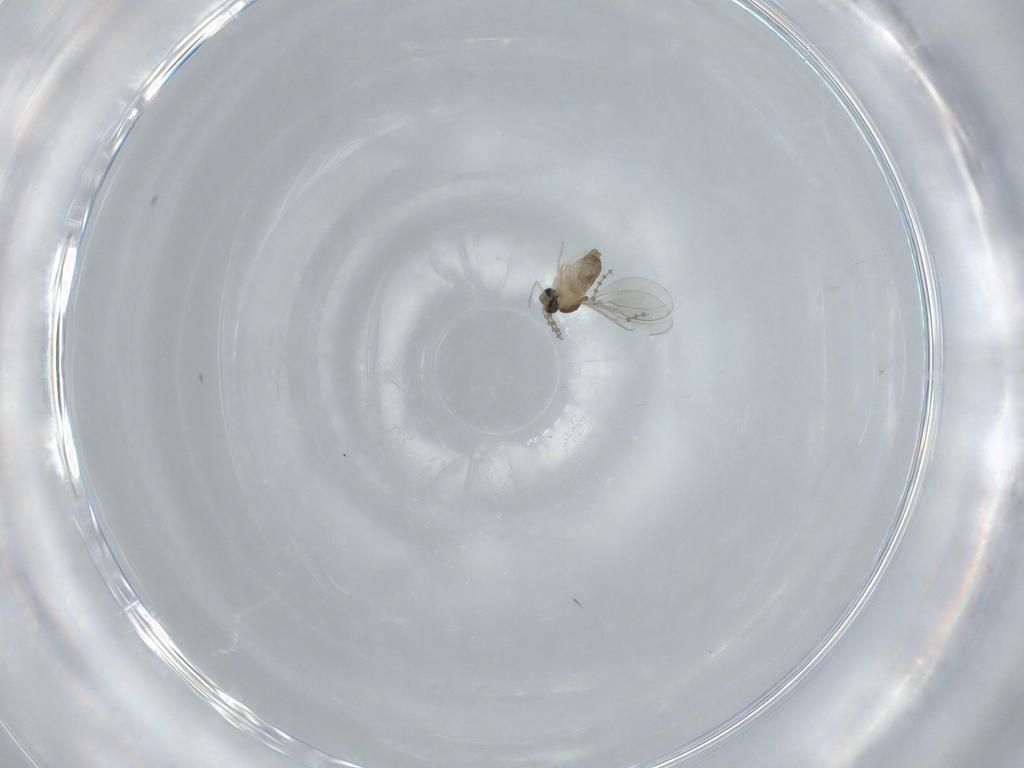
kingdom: Animalia
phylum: Arthropoda
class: Insecta
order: Diptera
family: Cecidomyiidae
